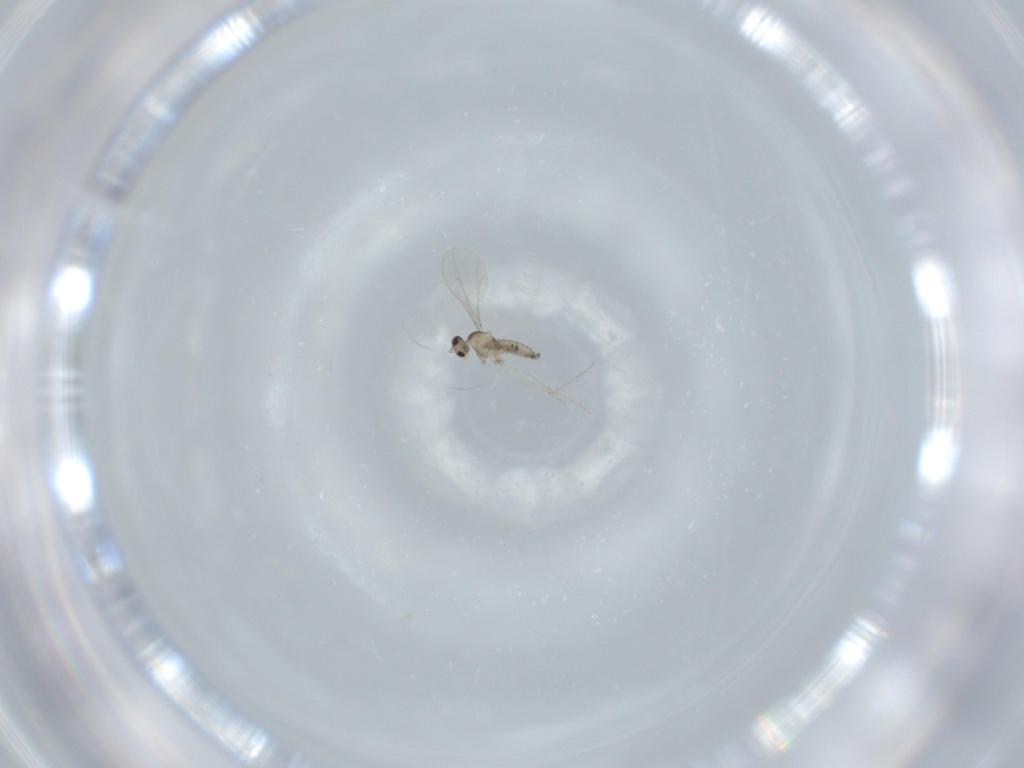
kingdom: Animalia
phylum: Arthropoda
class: Insecta
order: Diptera
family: Cecidomyiidae
